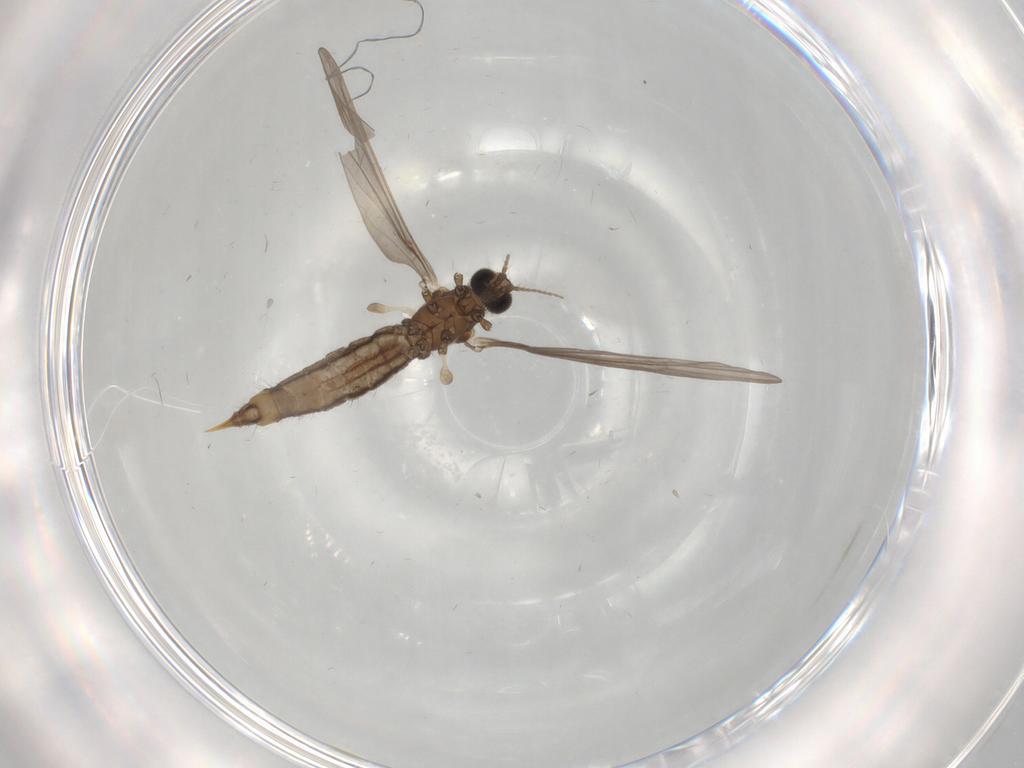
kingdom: Animalia
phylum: Arthropoda
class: Insecta
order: Diptera
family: Limoniidae
